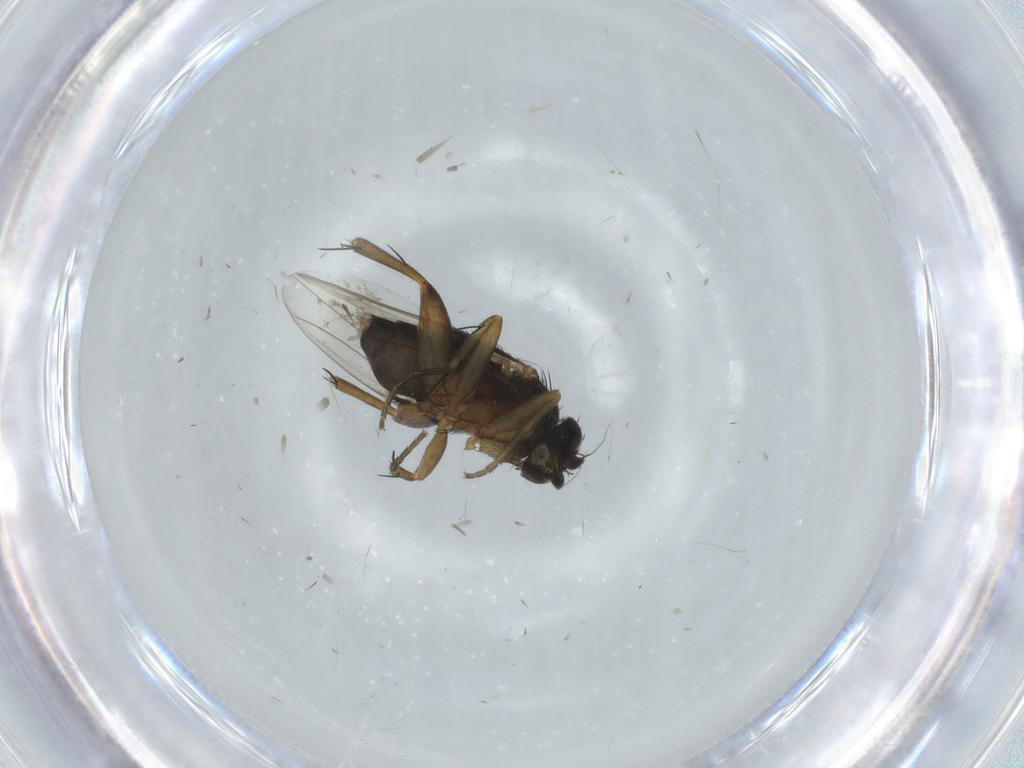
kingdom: Animalia
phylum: Arthropoda
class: Insecta
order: Diptera
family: Phoridae
